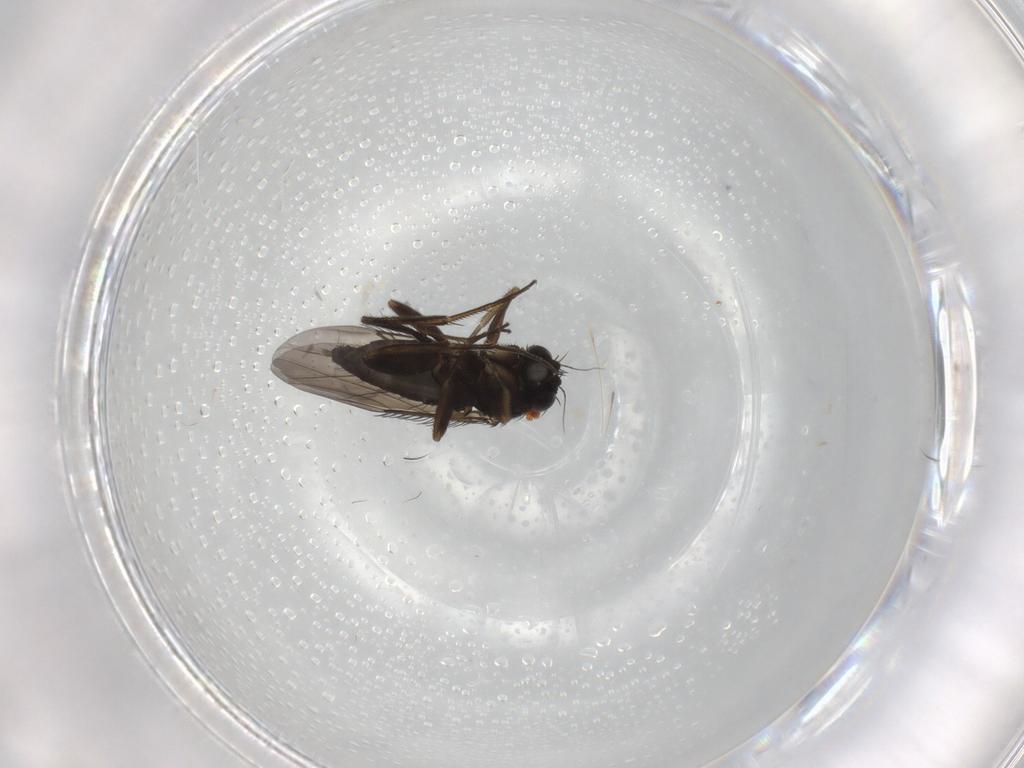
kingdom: Animalia
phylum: Arthropoda
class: Insecta
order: Diptera
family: Phoridae
